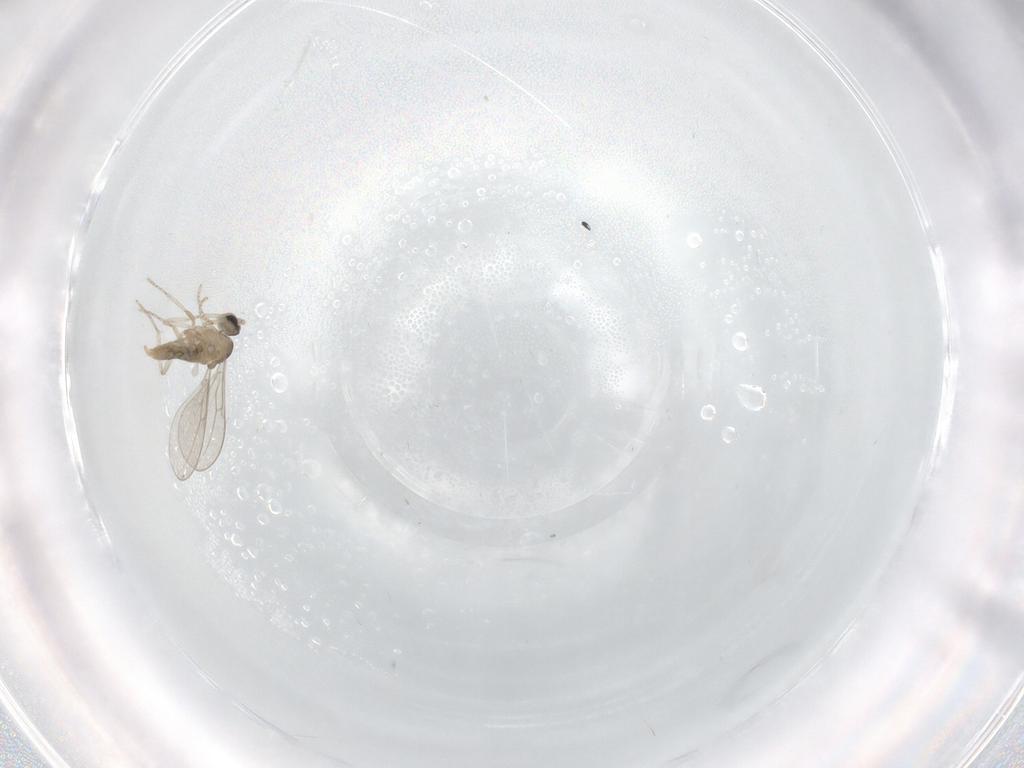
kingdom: Animalia
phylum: Arthropoda
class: Insecta
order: Diptera
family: Cecidomyiidae
